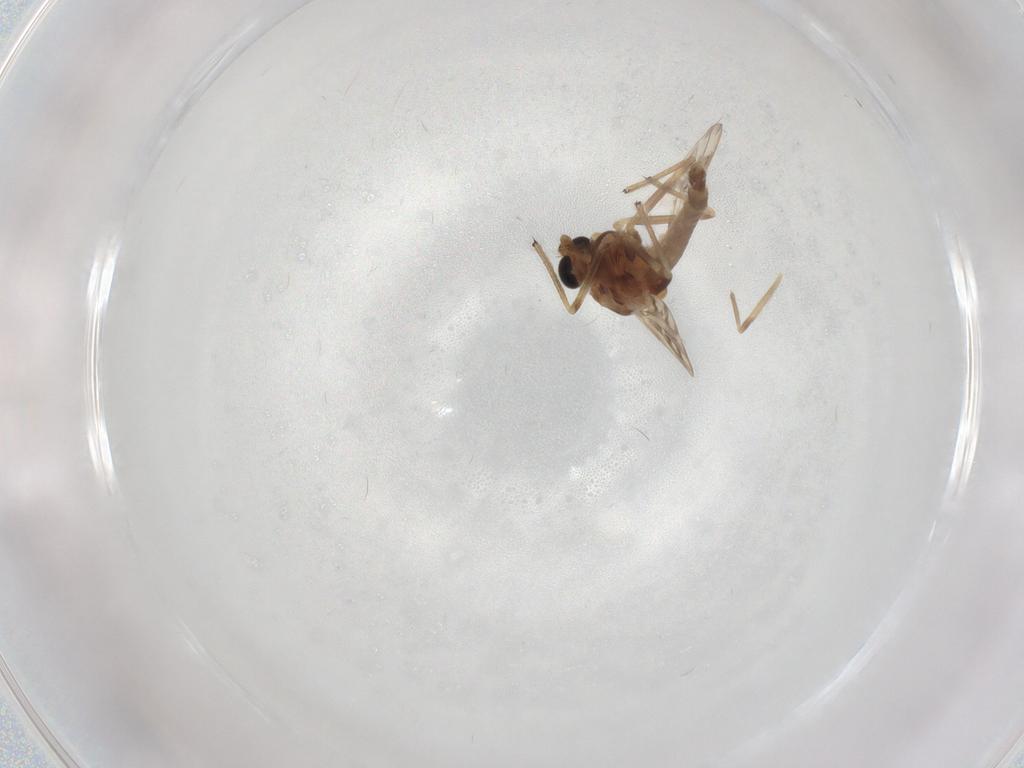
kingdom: Animalia
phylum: Arthropoda
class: Insecta
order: Diptera
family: Chironomidae
